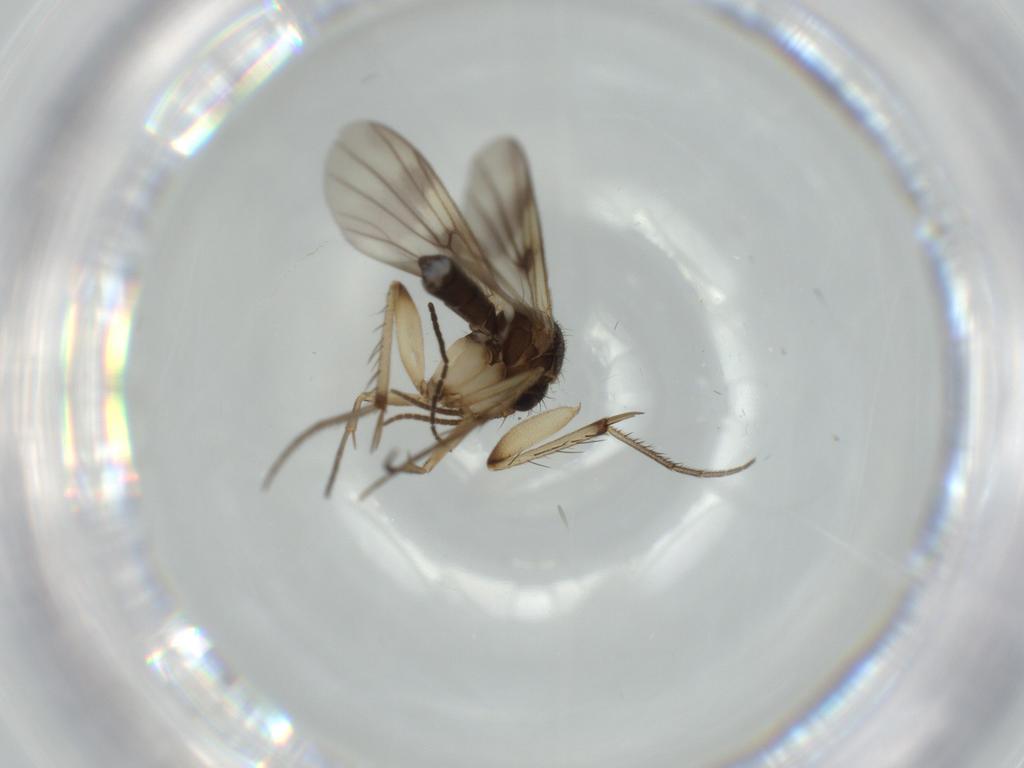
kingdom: Animalia
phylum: Arthropoda
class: Insecta
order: Diptera
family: Mycetophilidae
